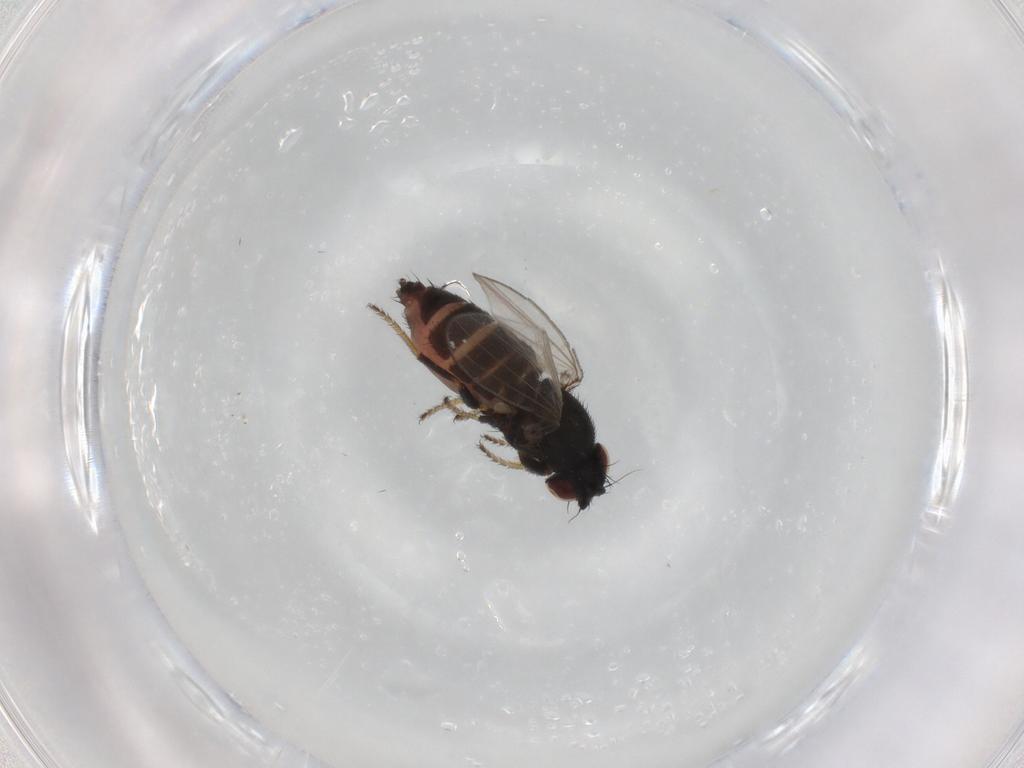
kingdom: Animalia
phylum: Arthropoda
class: Insecta
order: Diptera
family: Milichiidae
